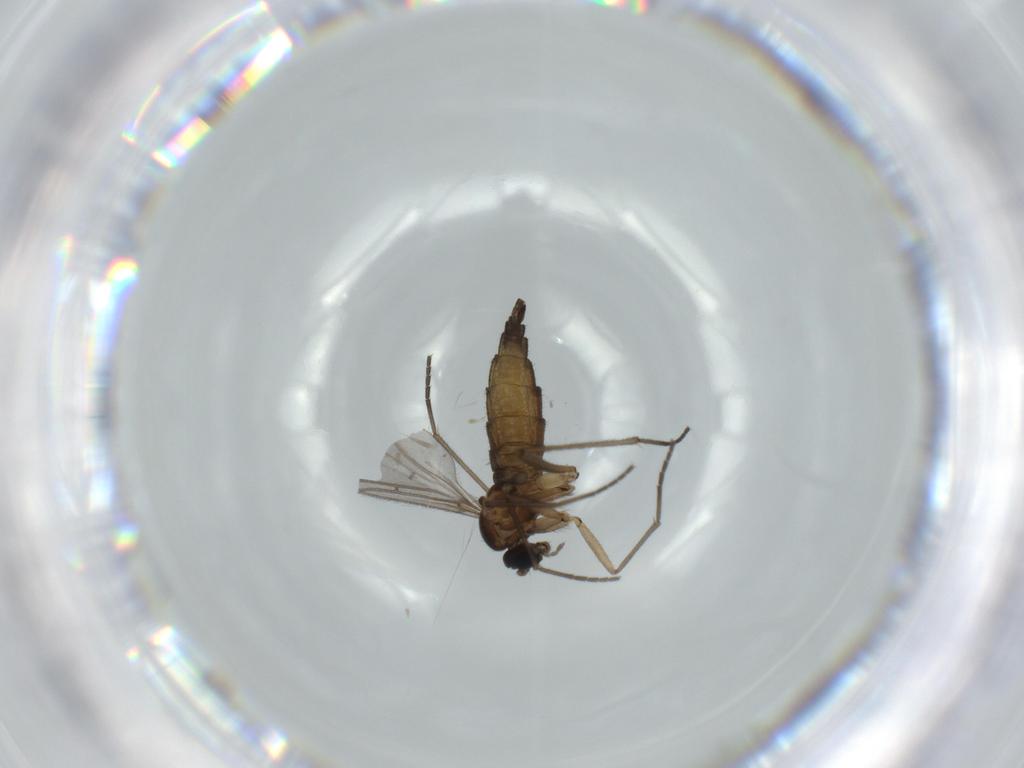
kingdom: Animalia
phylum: Arthropoda
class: Insecta
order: Diptera
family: Sciaridae
